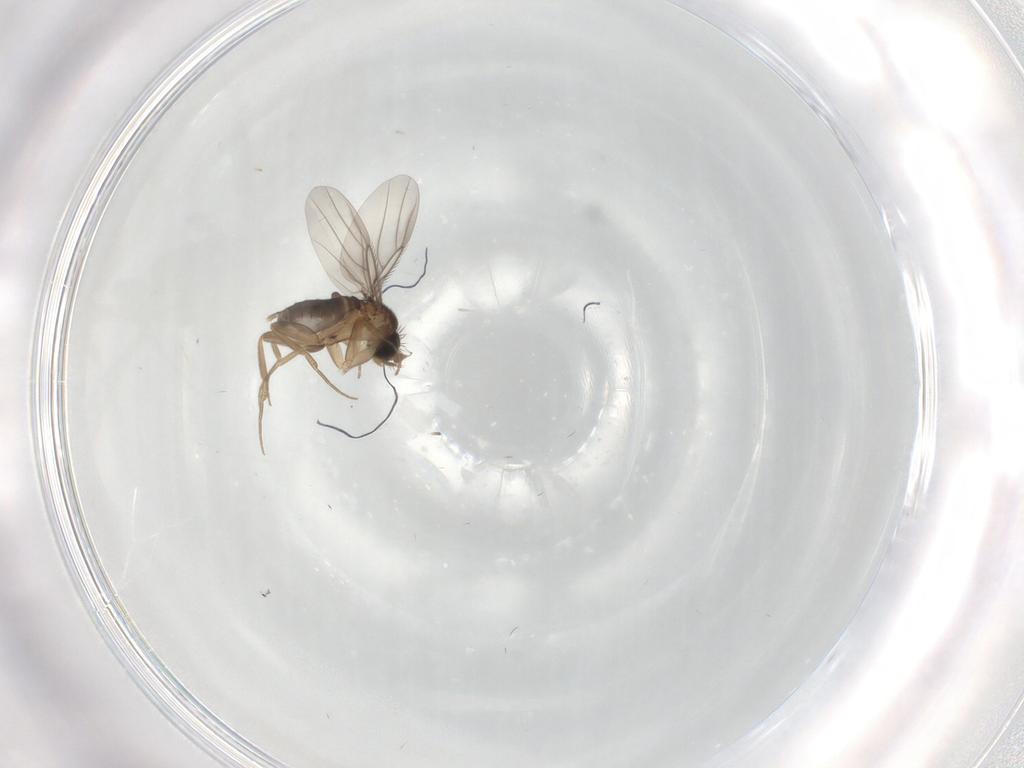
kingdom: Animalia
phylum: Arthropoda
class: Insecta
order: Diptera
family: Phoridae
